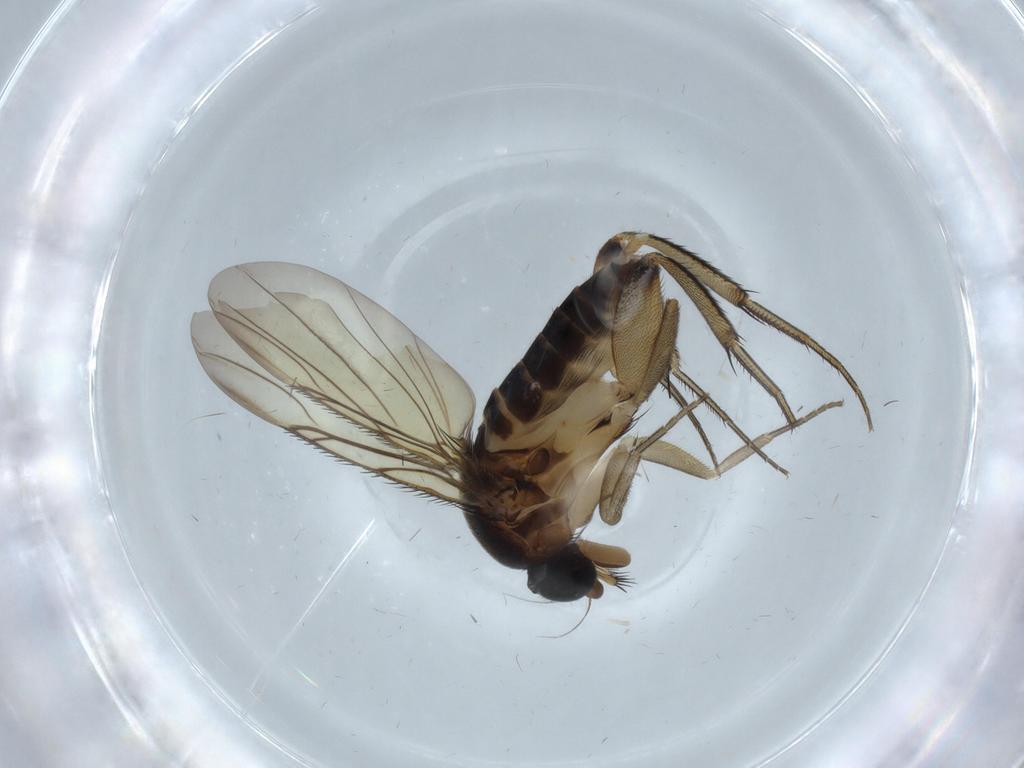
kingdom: Animalia
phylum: Arthropoda
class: Insecta
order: Diptera
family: Phoridae
